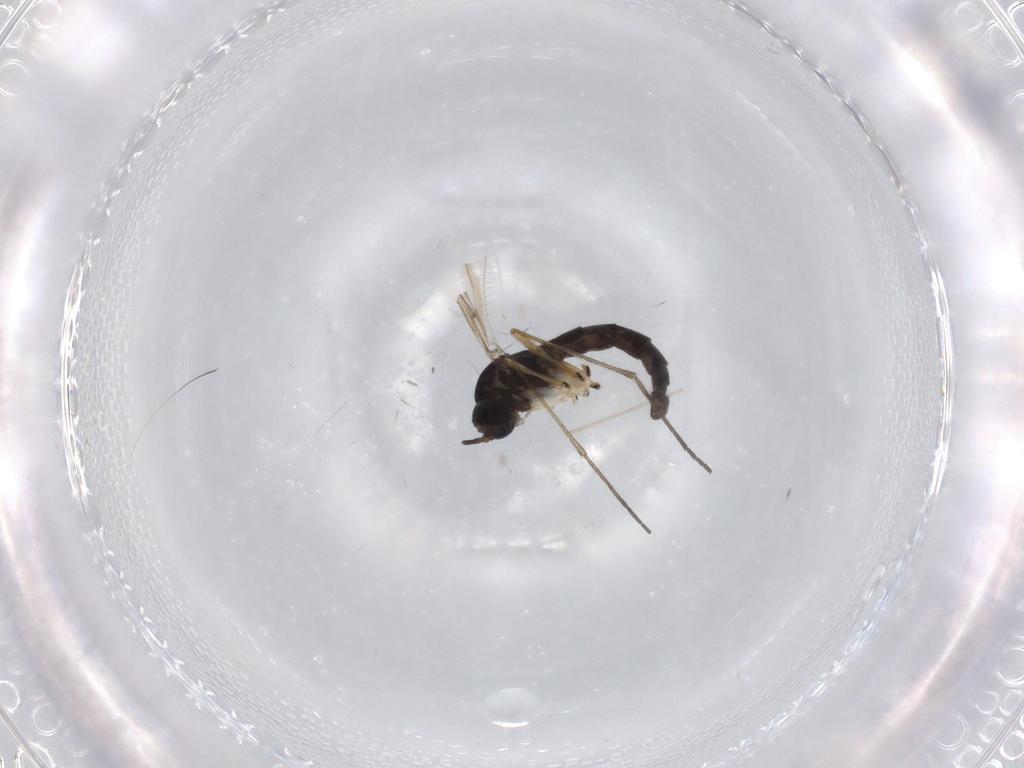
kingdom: Animalia
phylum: Arthropoda
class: Insecta
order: Diptera
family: Sciaridae
